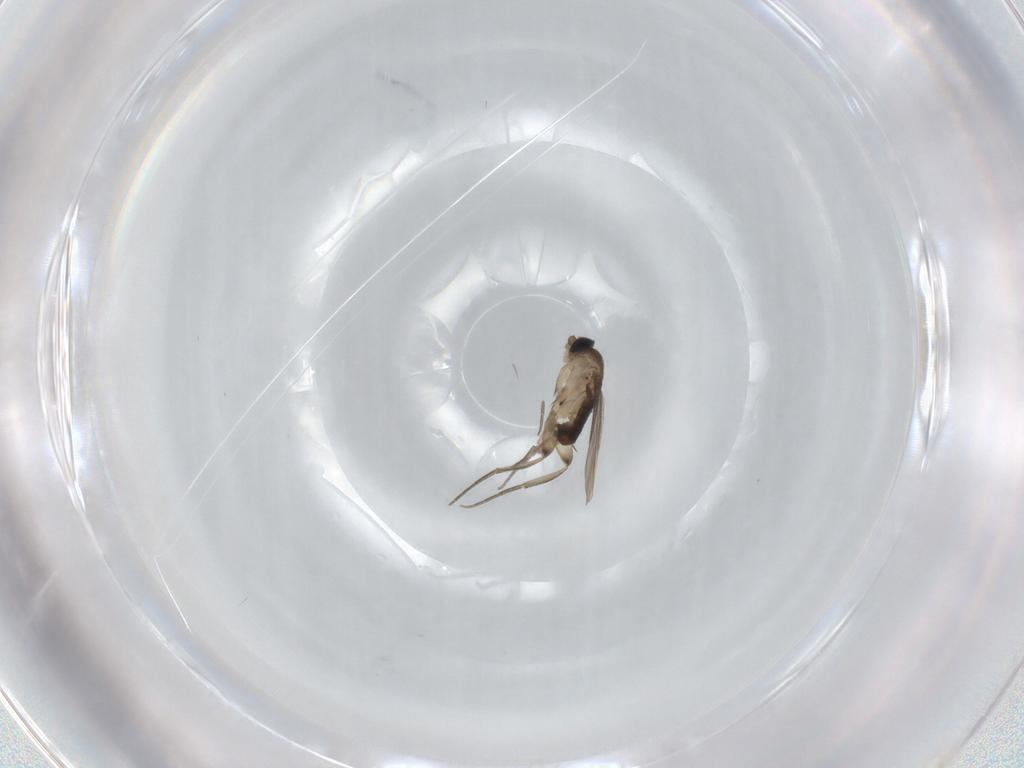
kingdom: Animalia
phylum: Arthropoda
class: Insecta
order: Diptera
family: Phoridae
